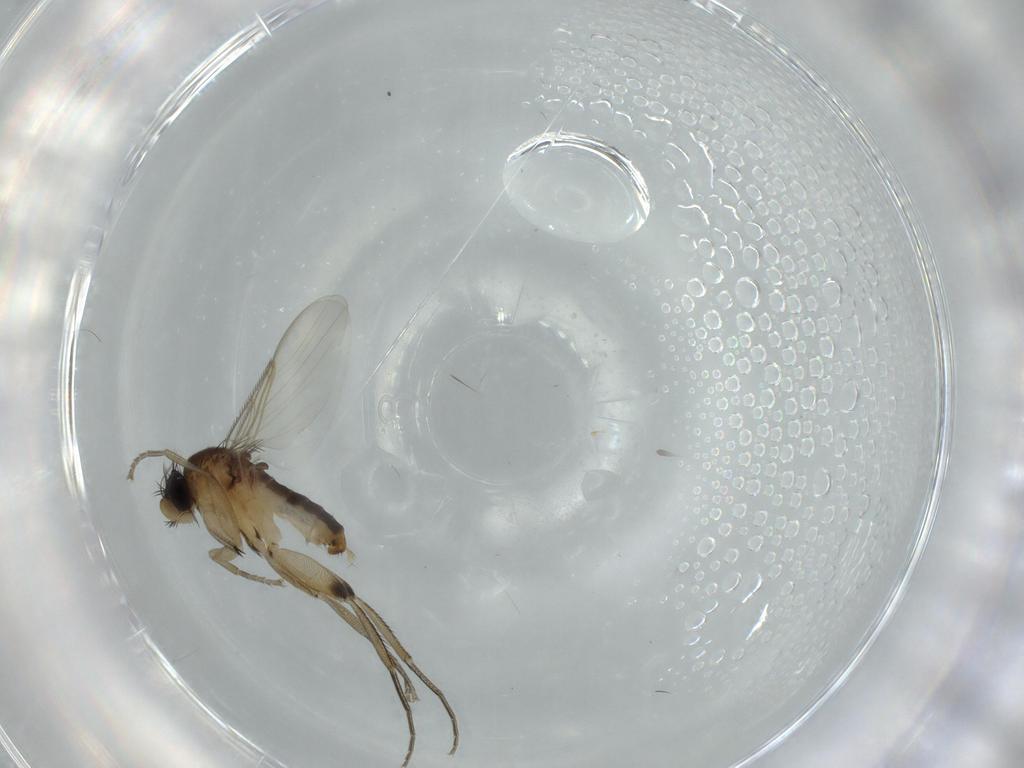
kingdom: Animalia
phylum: Arthropoda
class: Insecta
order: Diptera
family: Phoridae
